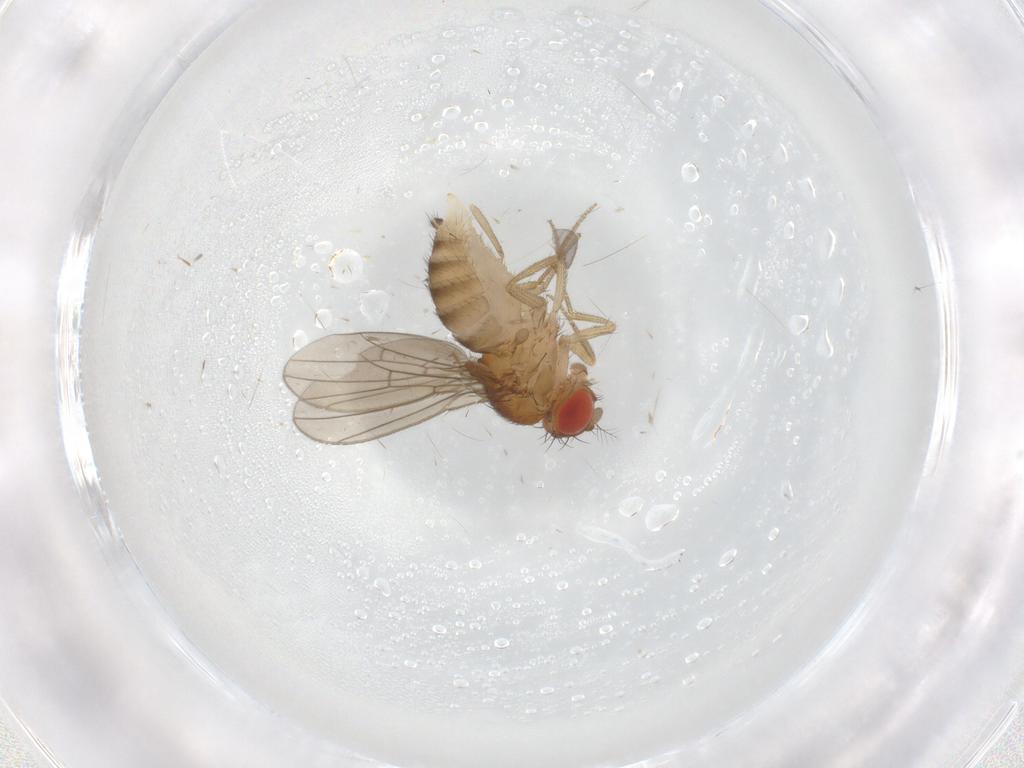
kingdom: Animalia
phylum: Arthropoda
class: Insecta
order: Diptera
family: Drosophilidae
